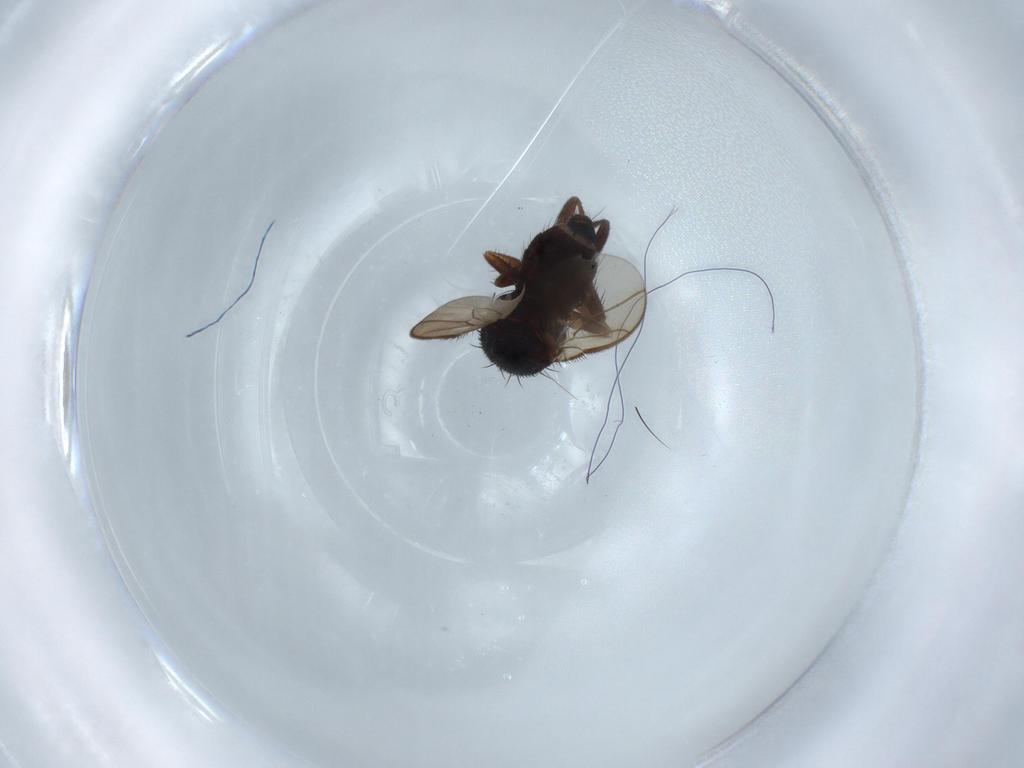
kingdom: Animalia
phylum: Arthropoda
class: Insecta
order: Diptera
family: Sphaeroceridae
